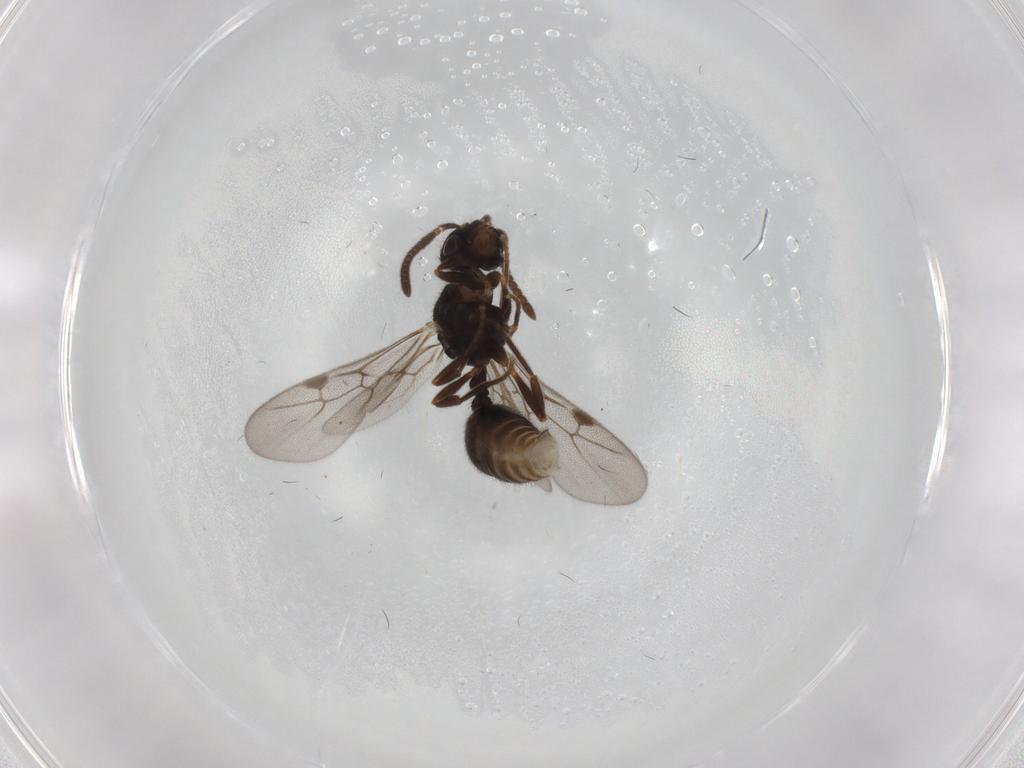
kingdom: Animalia
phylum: Arthropoda
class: Insecta
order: Hymenoptera
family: Formicidae
